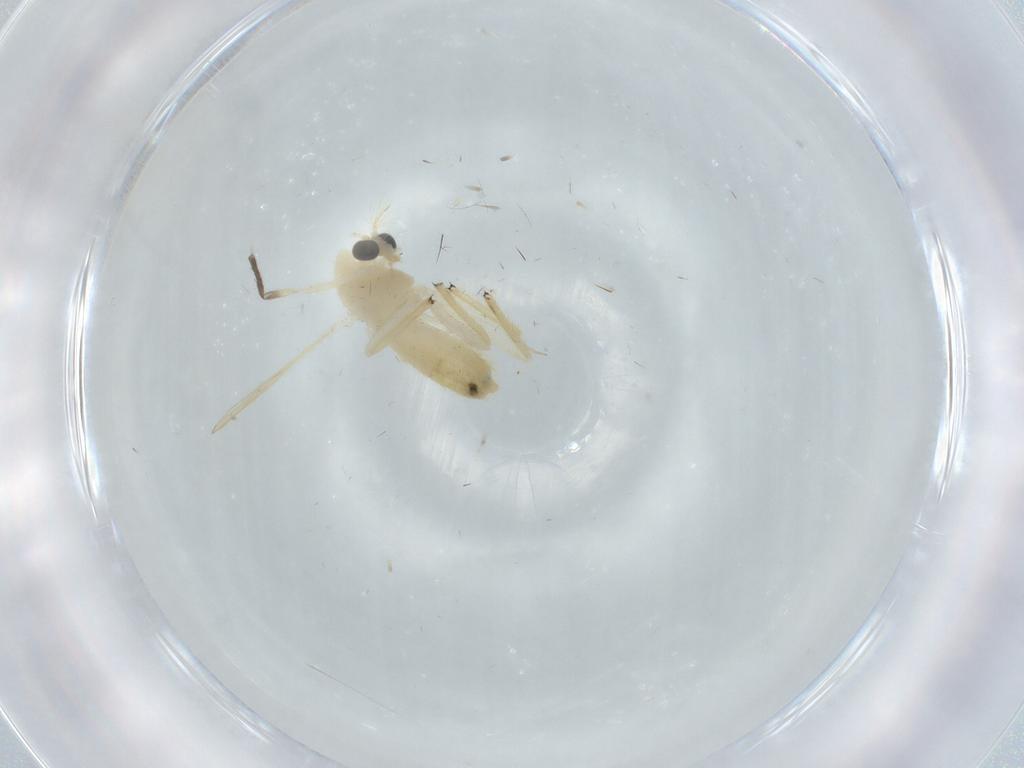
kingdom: Animalia
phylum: Arthropoda
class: Insecta
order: Diptera
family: Chironomidae
